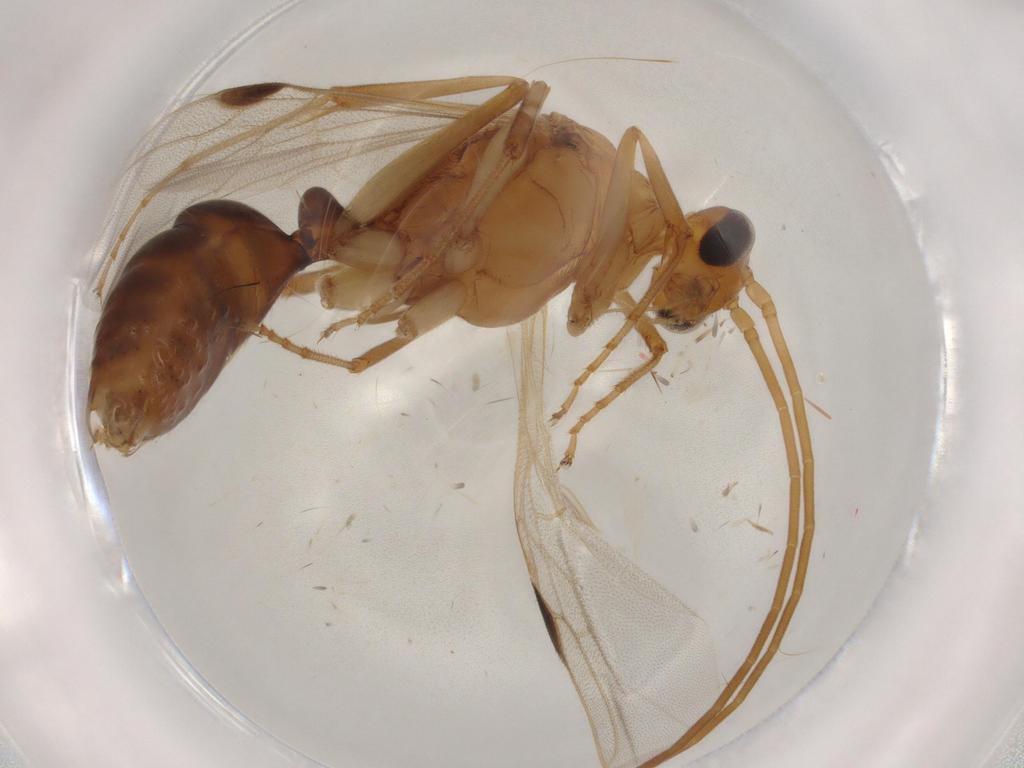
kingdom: Animalia
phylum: Arthropoda
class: Insecta
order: Hymenoptera
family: Formicidae
